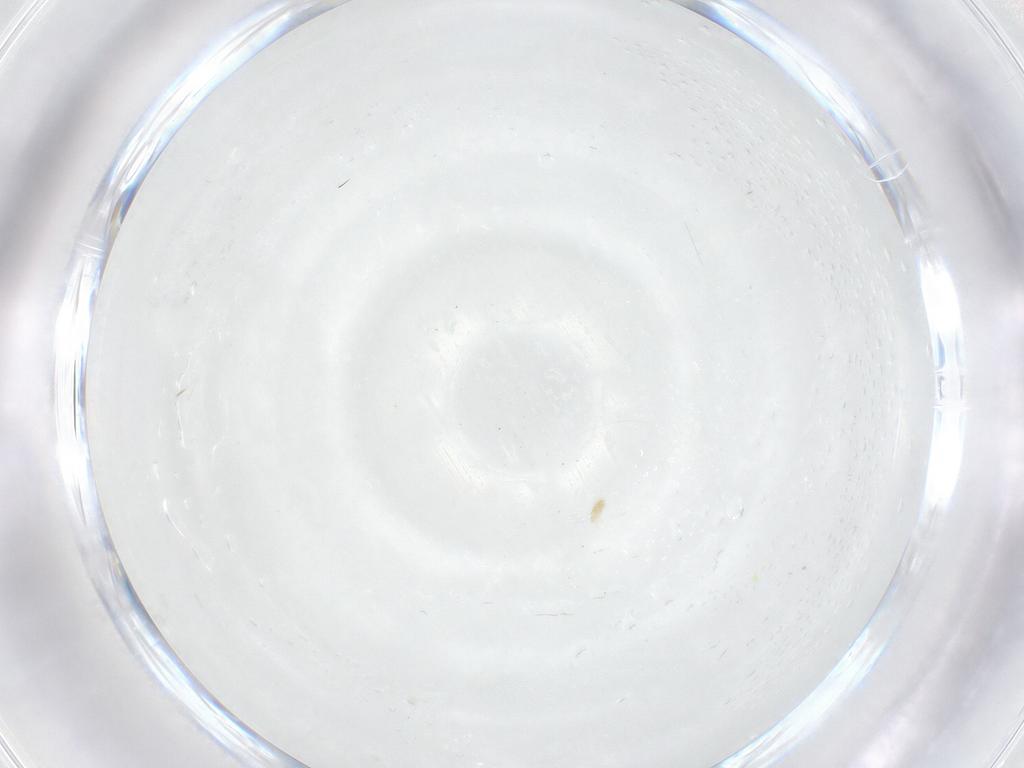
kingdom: Animalia
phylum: Arthropoda
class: Arachnida
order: Trombidiformes
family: Eupodidae
